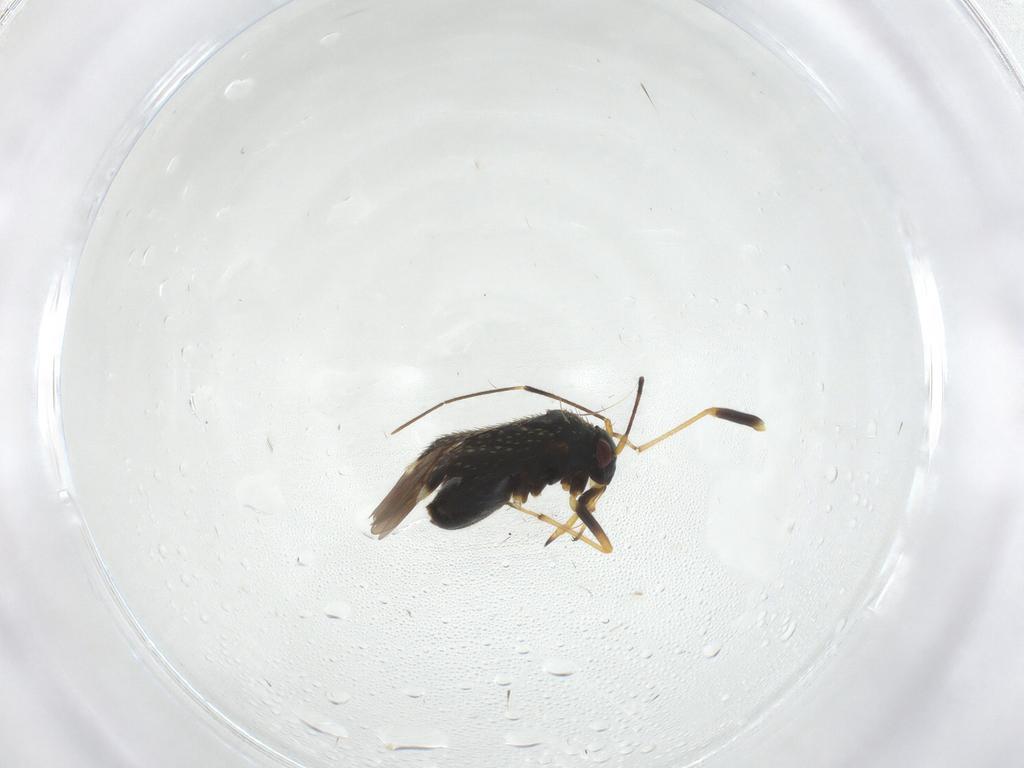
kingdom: Animalia
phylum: Arthropoda
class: Insecta
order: Hemiptera
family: Miridae
